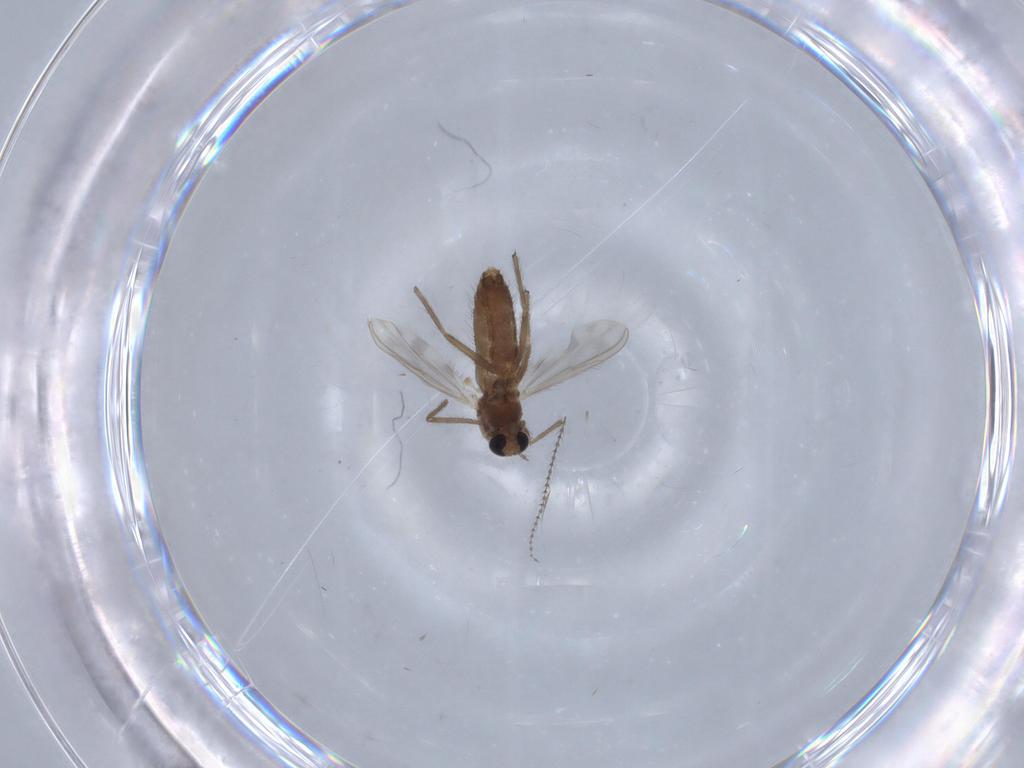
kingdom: Animalia
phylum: Arthropoda
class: Insecta
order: Diptera
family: Chironomidae
